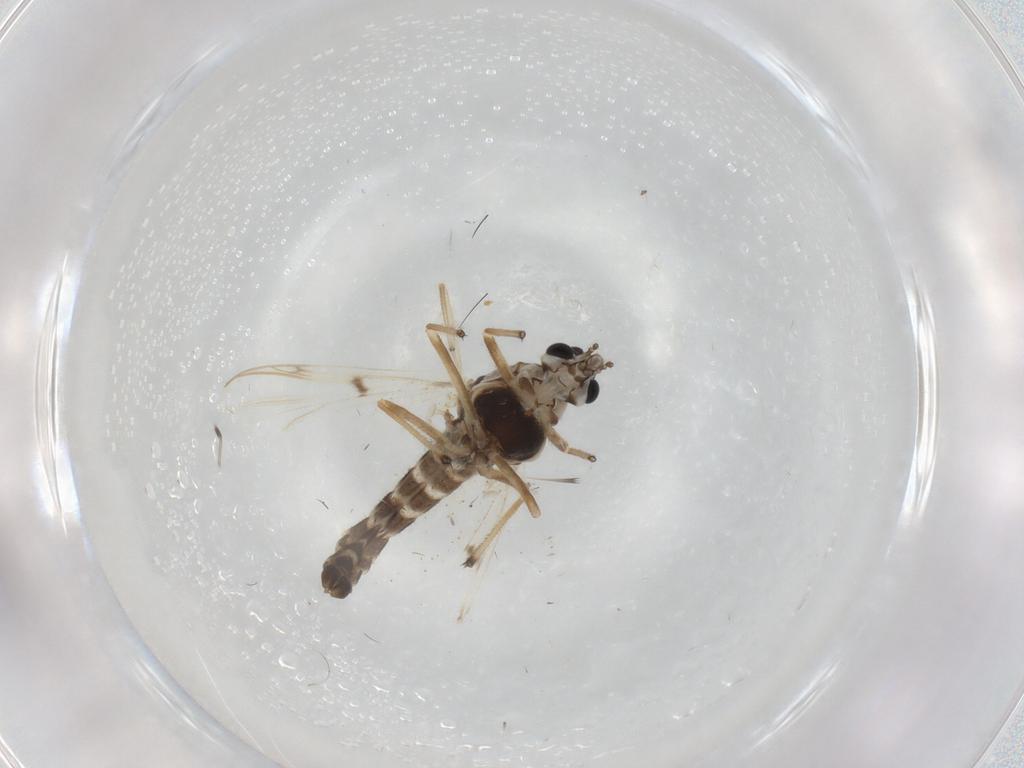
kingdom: Animalia
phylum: Arthropoda
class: Insecta
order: Diptera
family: Chironomidae
